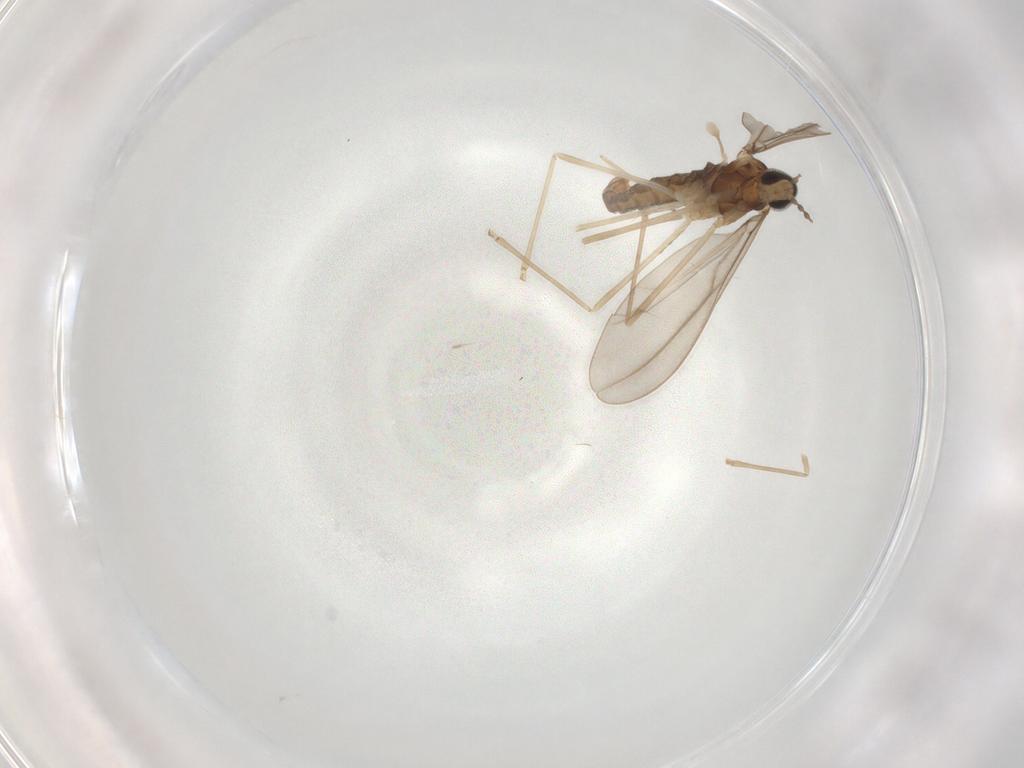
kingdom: Animalia
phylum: Arthropoda
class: Insecta
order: Diptera
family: Cecidomyiidae
